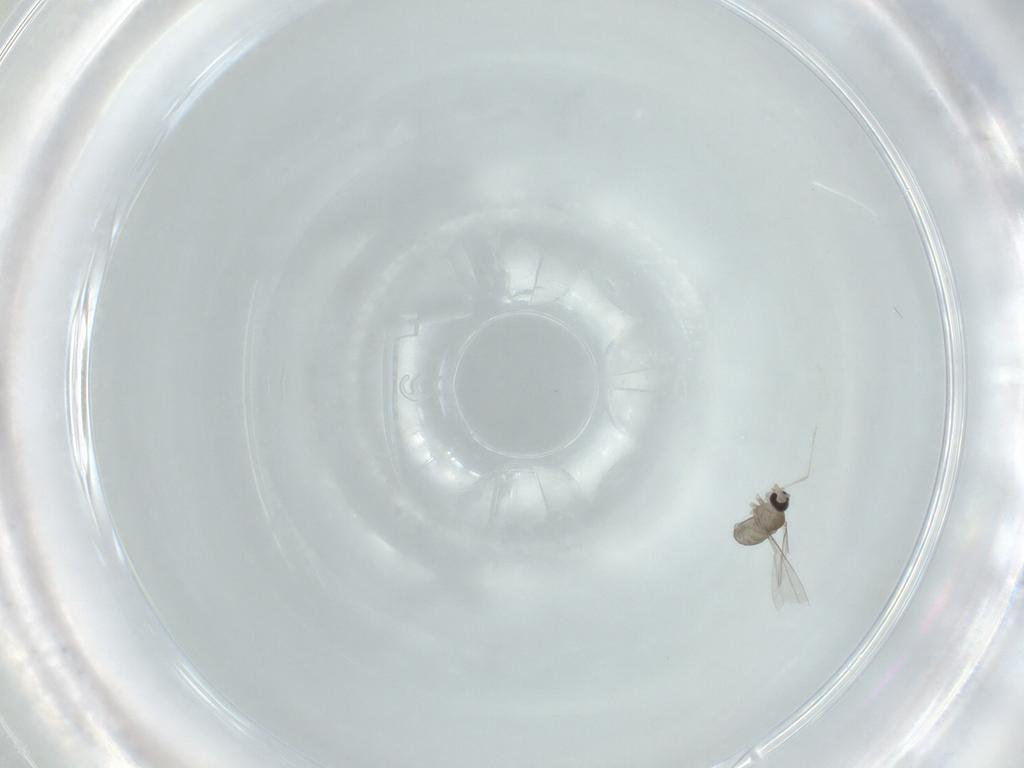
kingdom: Animalia
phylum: Arthropoda
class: Insecta
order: Diptera
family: Cecidomyiidae
